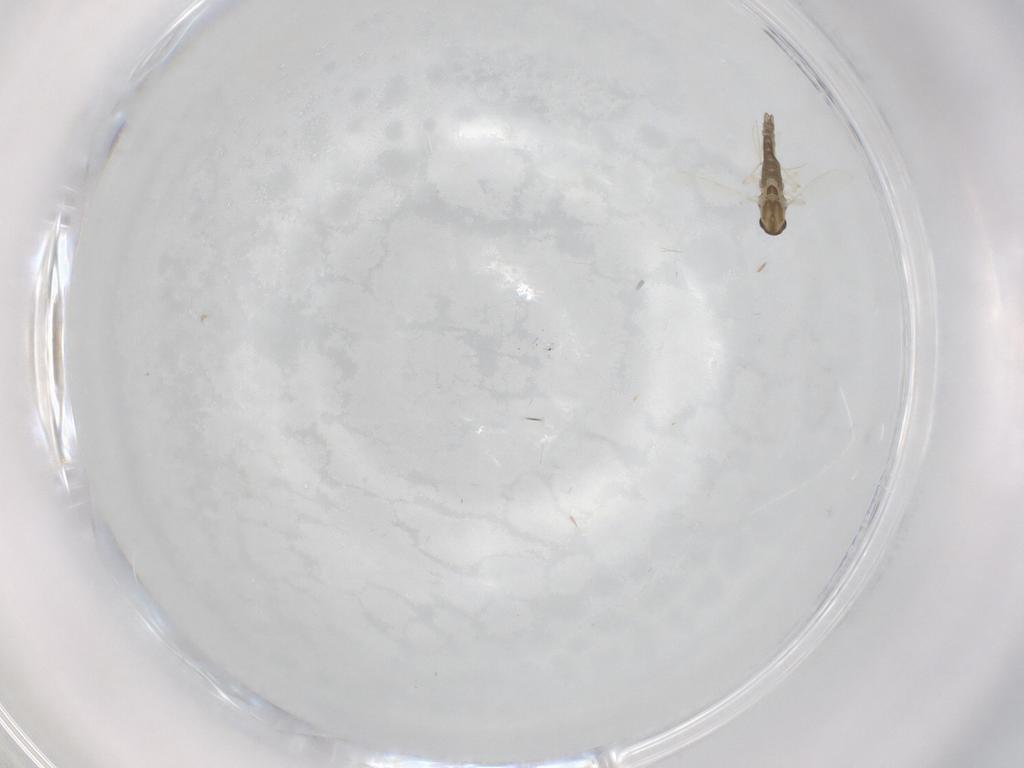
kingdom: Animalia
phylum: Arthropoda
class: Insecta
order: Diptera
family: Chironomidae
